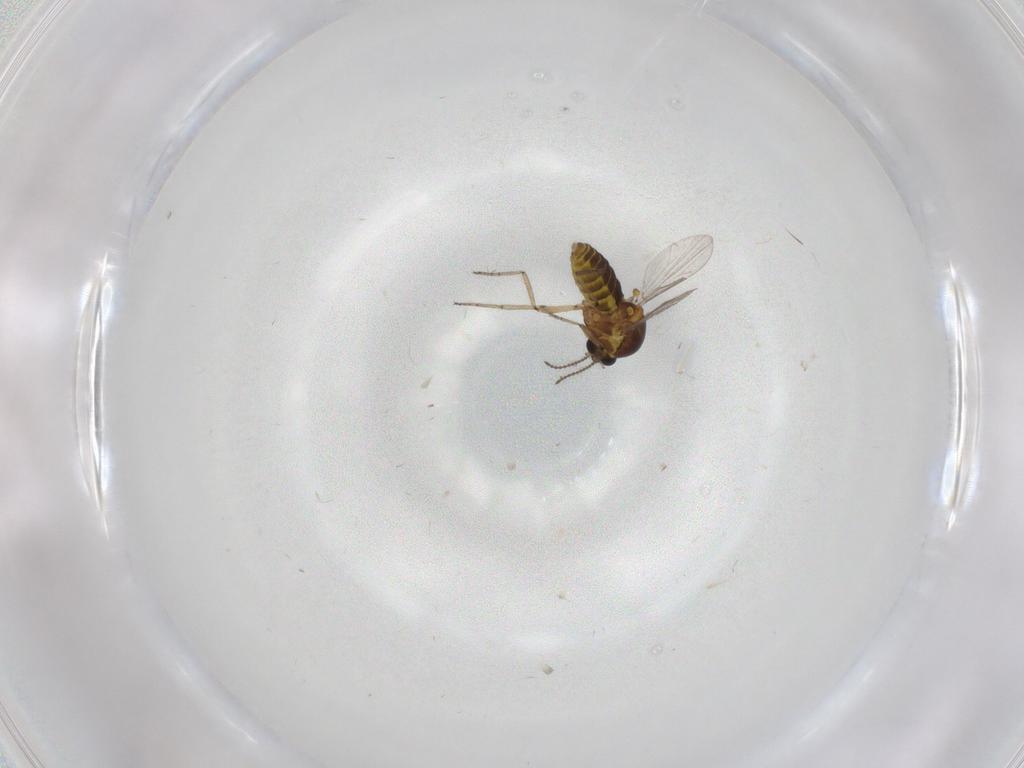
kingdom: Animalia
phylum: Arthropoda
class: Insecta
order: Diptera
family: Ceratopogonidae
